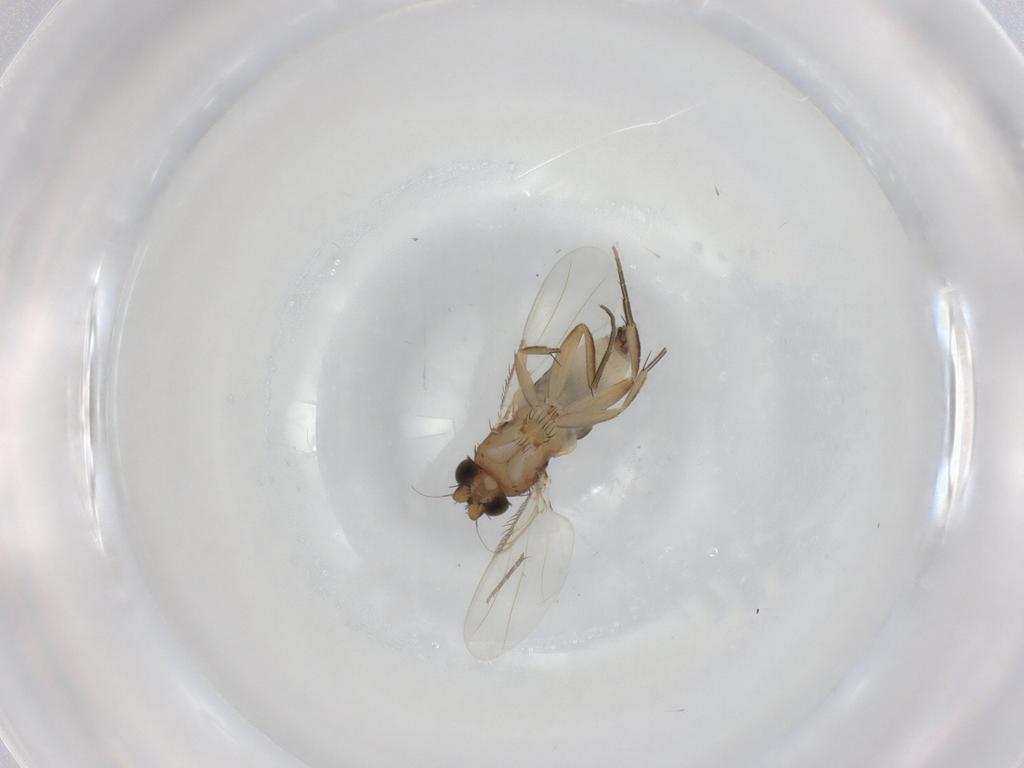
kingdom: Animalia
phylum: Arthropoda
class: Insecta
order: Diptera
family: Phoridae
